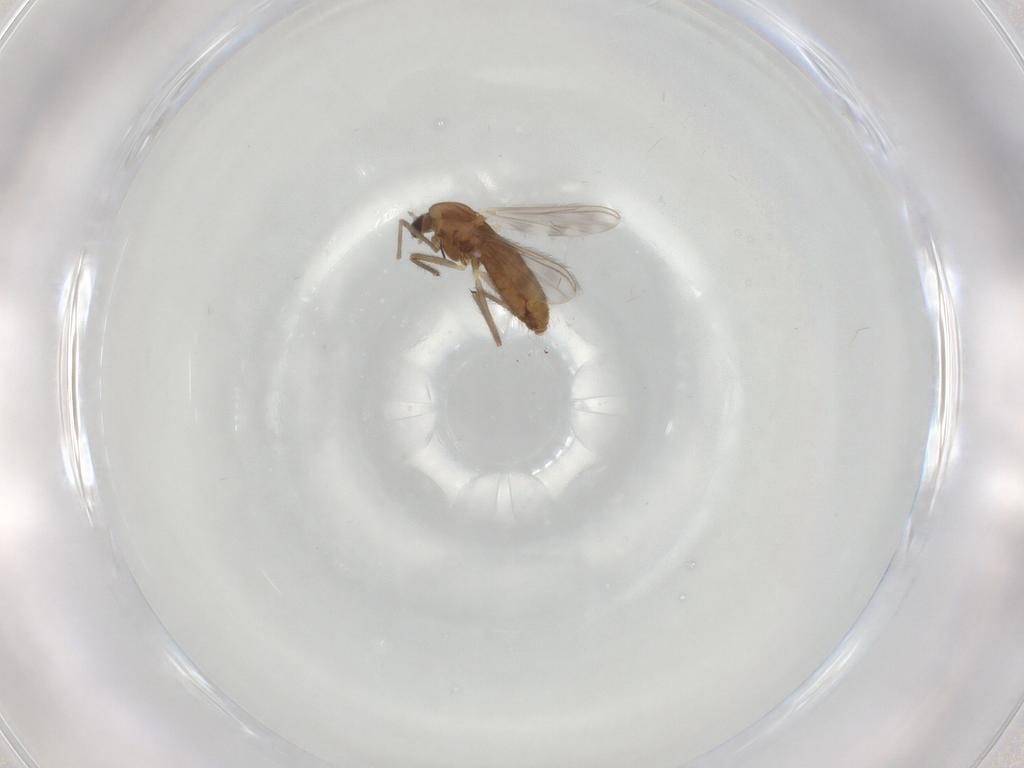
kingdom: Animalia
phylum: Arthropoda
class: Insecta
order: Diptera
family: Chironomidae
